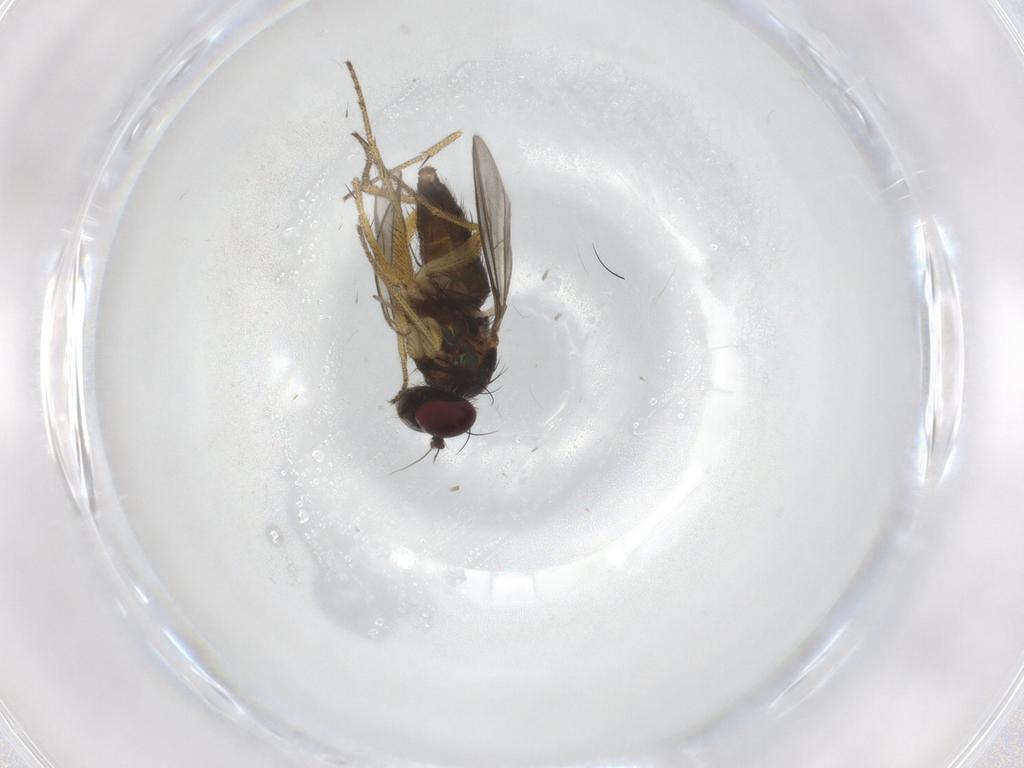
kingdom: Animalia
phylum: Arthropoda
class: Insecta
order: Diptera
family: Chironomidae
